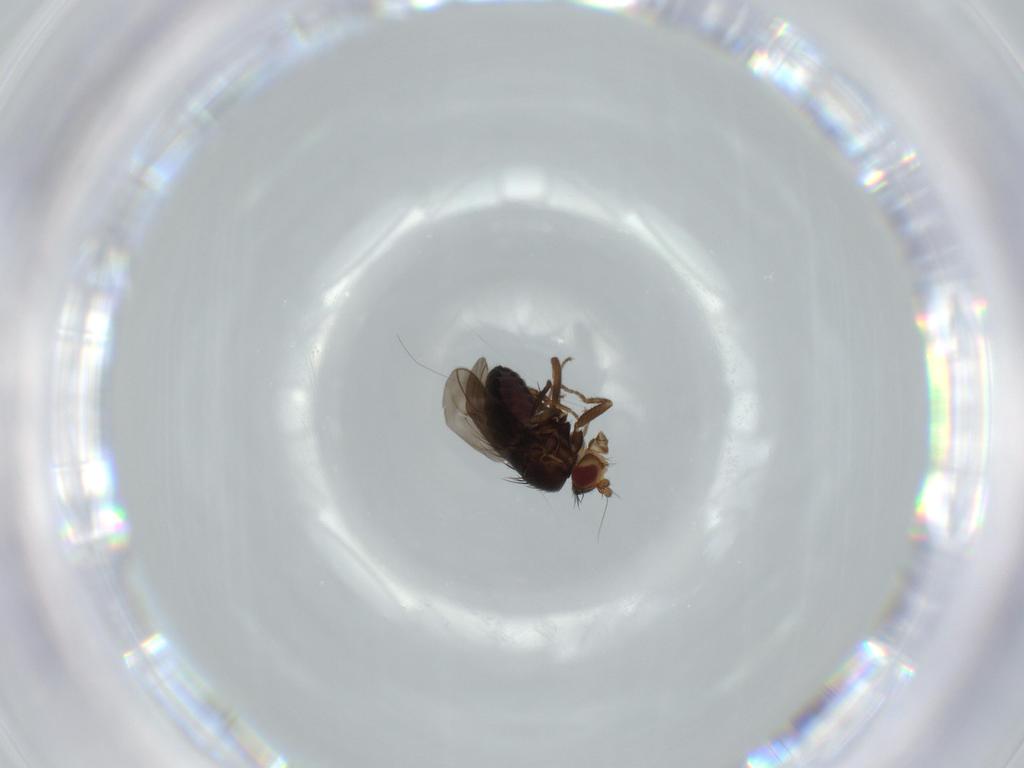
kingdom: Animalia
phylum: Arthropoda
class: Insecta
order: Diptera
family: Sphaeroceridae
